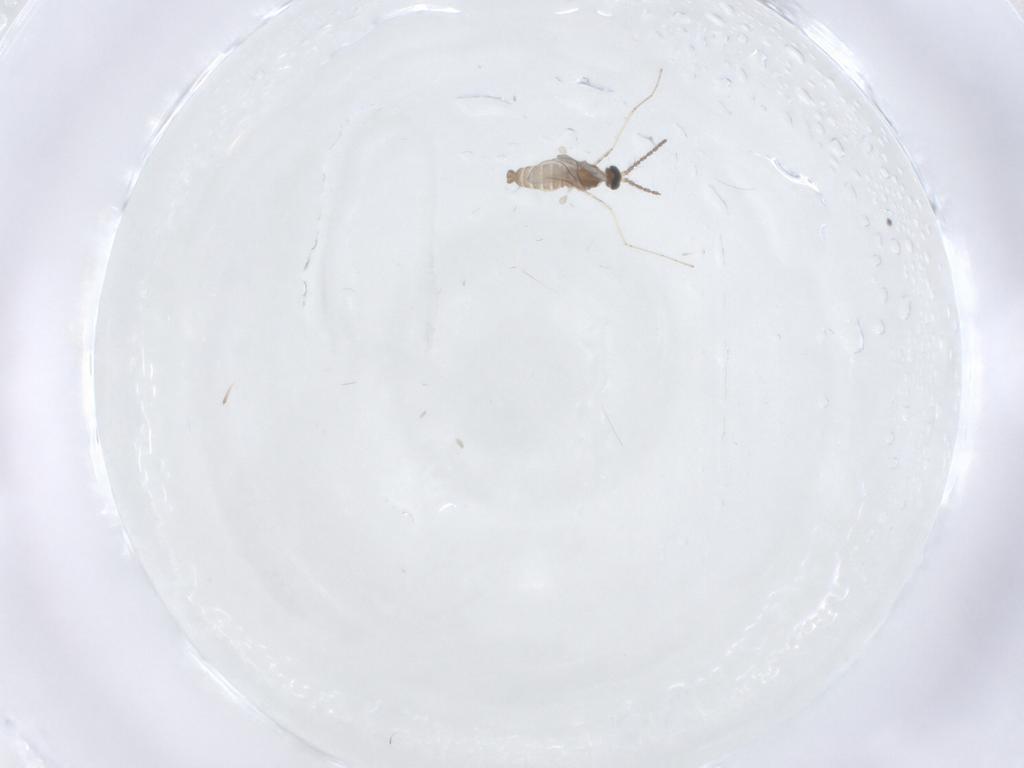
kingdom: Animalia
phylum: Arthropoda
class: Insecta
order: Diptera
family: Cecidomyiidae
